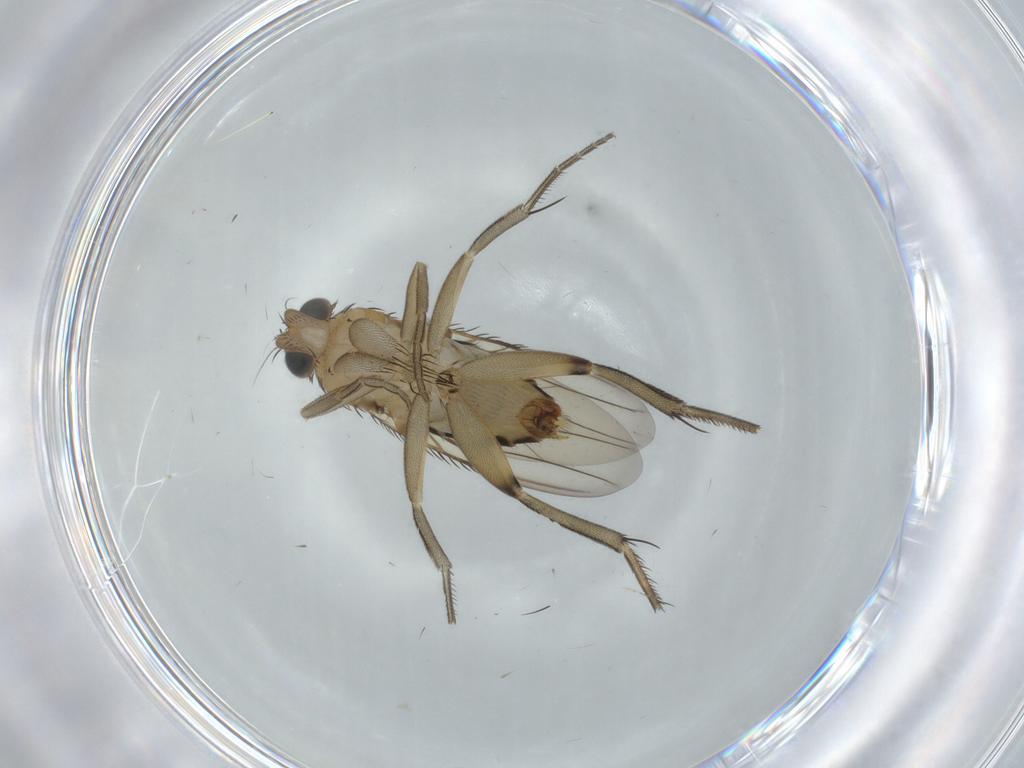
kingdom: Animalia
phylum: Arthropoda
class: Insecta
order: Diptera
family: Phoridae
